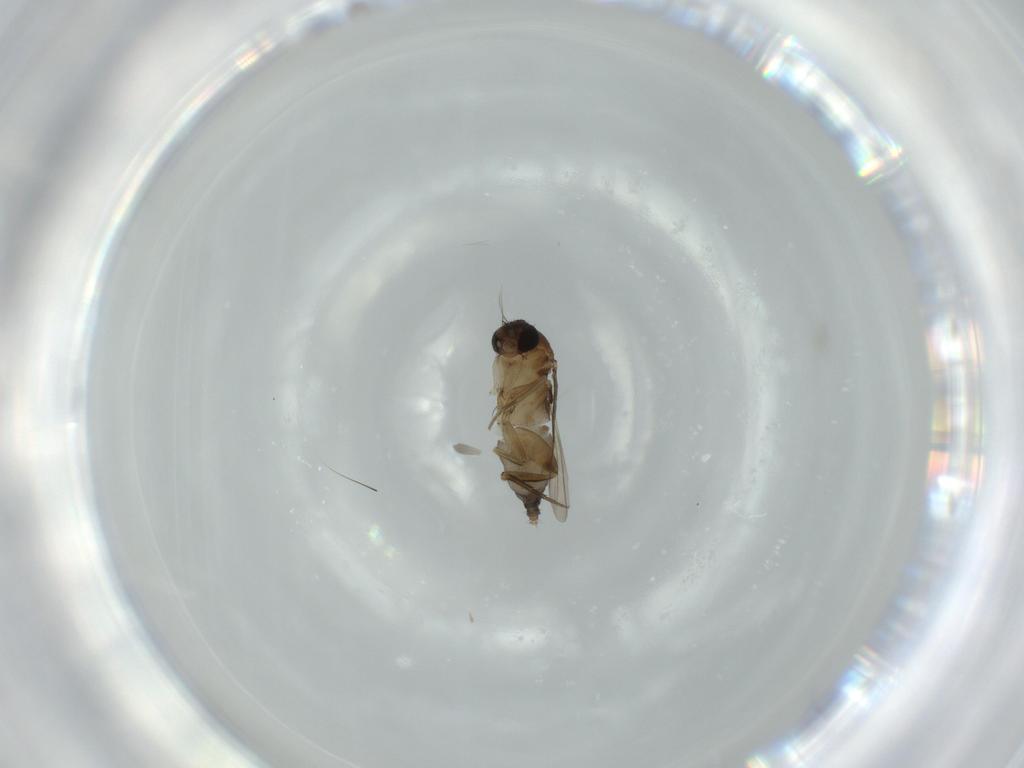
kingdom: Animalia
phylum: Arthropoda
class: Insecta
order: Diptera
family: Phoridae
